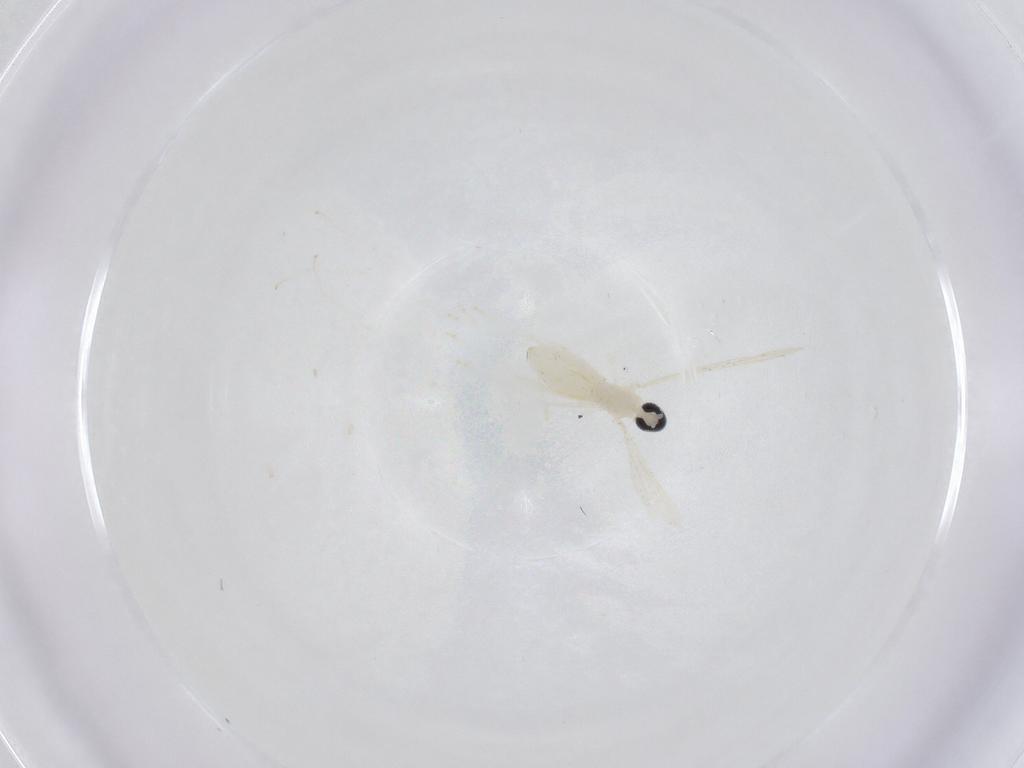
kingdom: Animalia
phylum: Arthropoda
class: Insecta
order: Diptera
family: Cecidomyiidae
